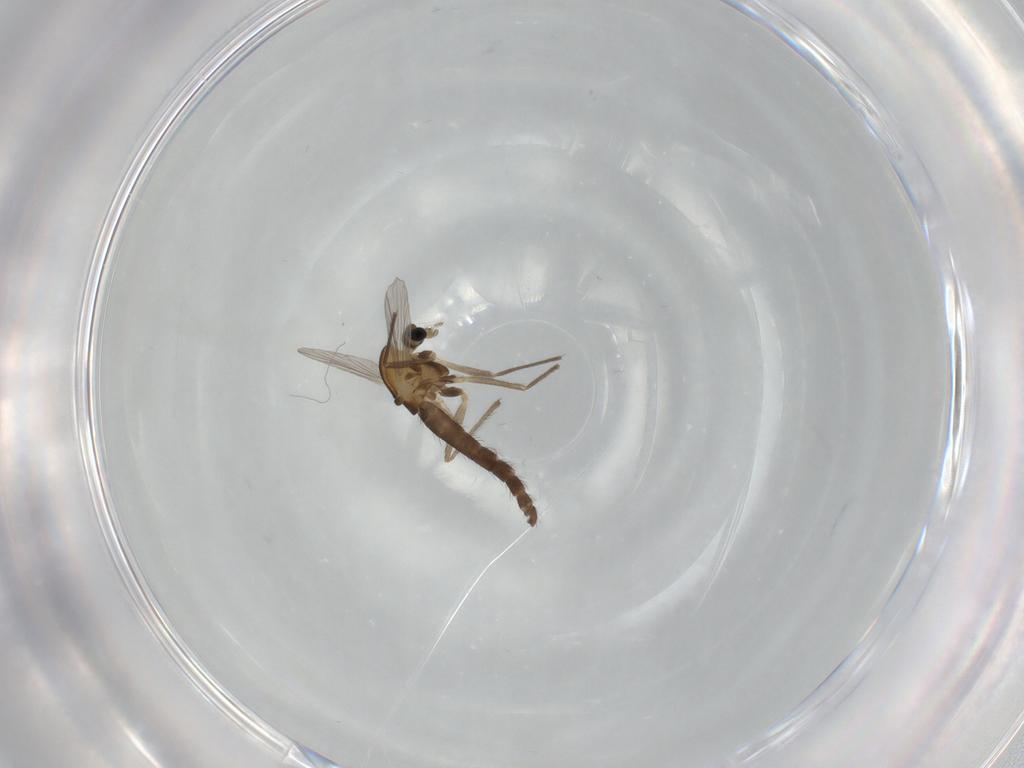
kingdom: Animalia
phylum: Arthropoda
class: Insecta
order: Diptera
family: Chironomidae
